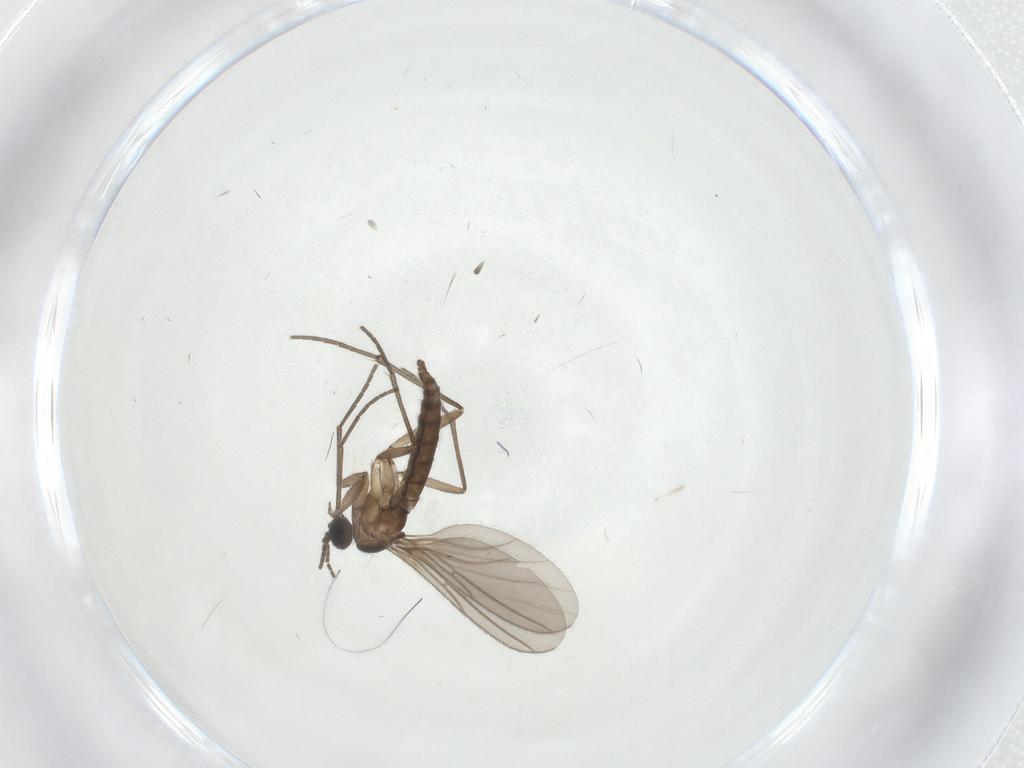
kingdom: Animalia
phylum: Arthropoda
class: Insecta
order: Diptera
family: Sciaridae
